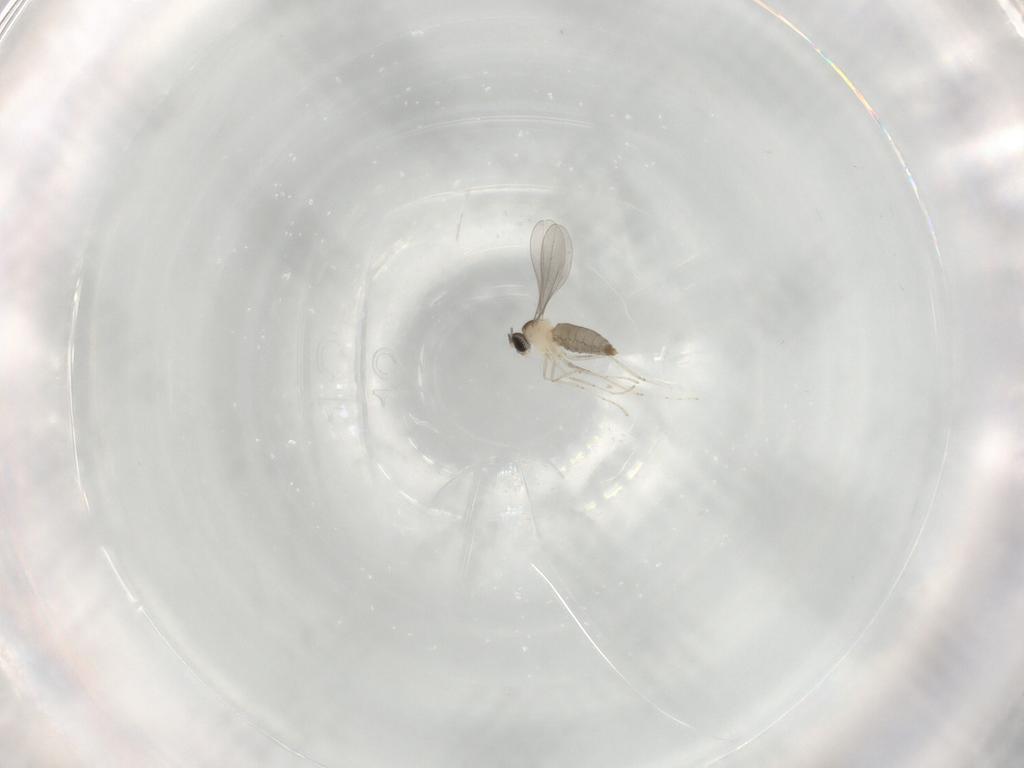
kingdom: Animalia
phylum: Arthropoda
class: Insecta
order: Diptera
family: Cecidomyiidae
